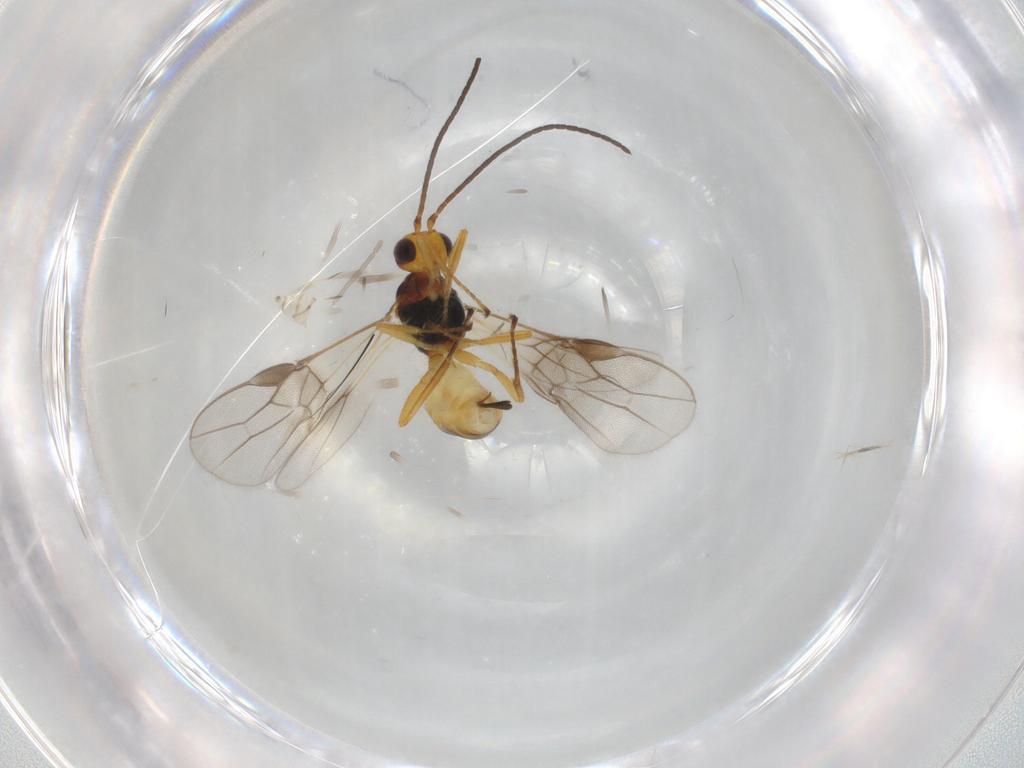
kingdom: Animalia
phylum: Arthropoda
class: Insecta
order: Hymenoptera
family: Braconidae
